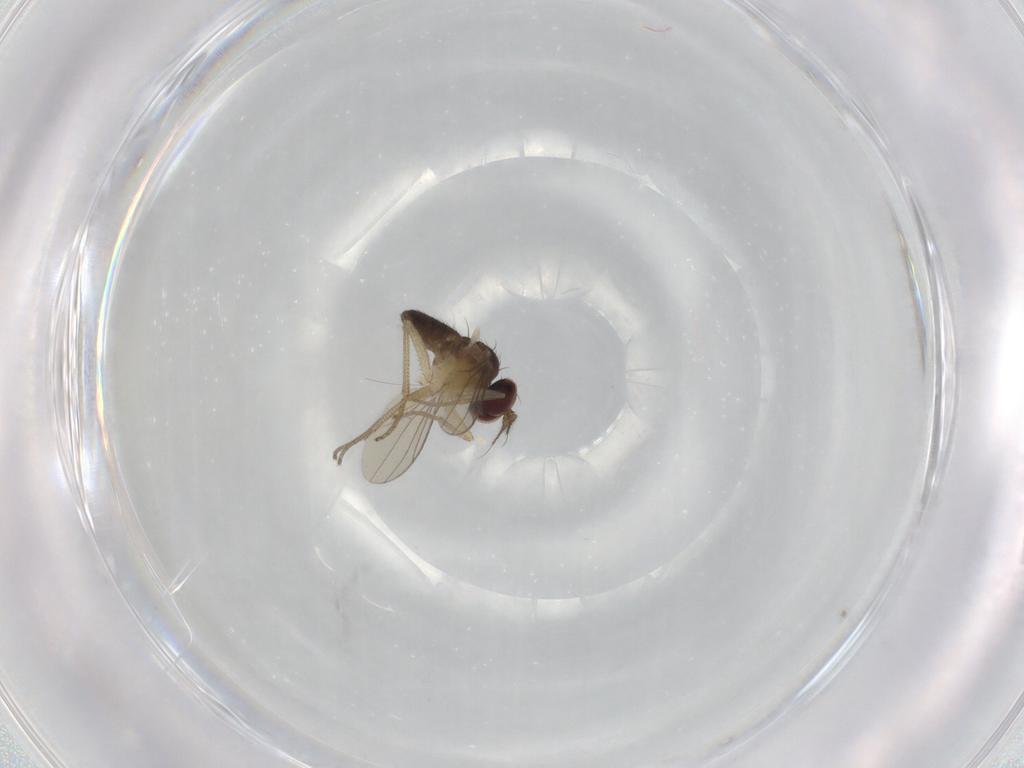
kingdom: Animalia
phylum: Arthropoda
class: Insecta
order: Diptera
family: Dolichopodidae
